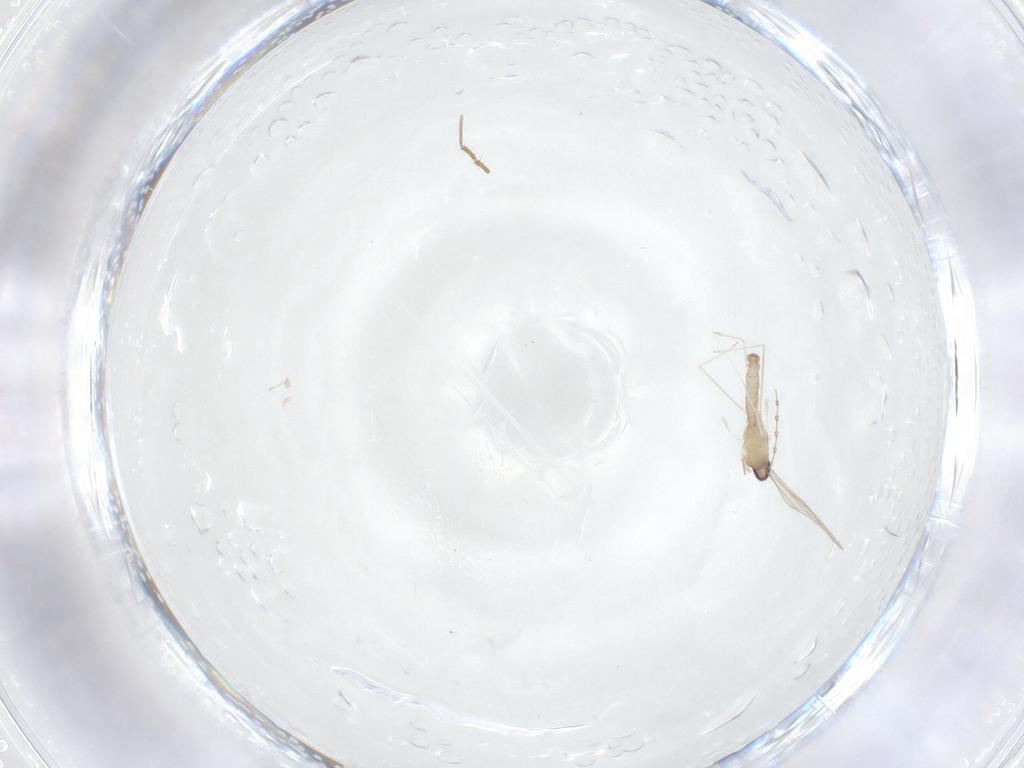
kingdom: Animalia
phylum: Arthropoda
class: Insecta
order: Diptera
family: Cecidomyiidae
